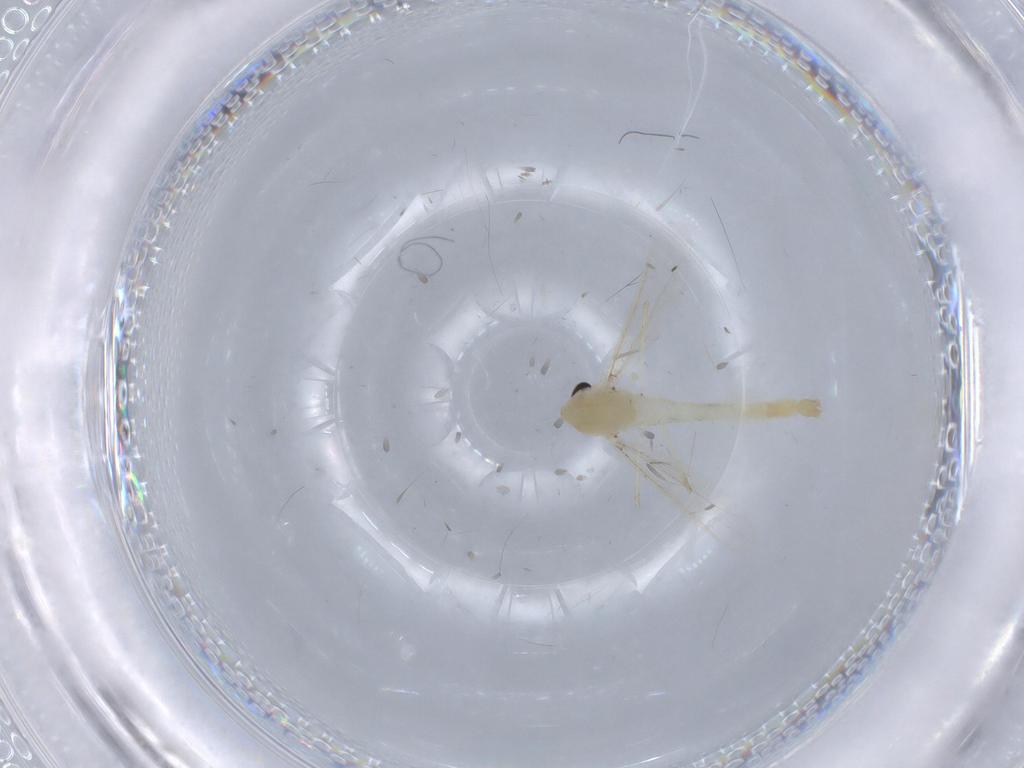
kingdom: Animalia
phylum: Arthropoda
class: Insecta
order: Diptera
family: Chironomidae
